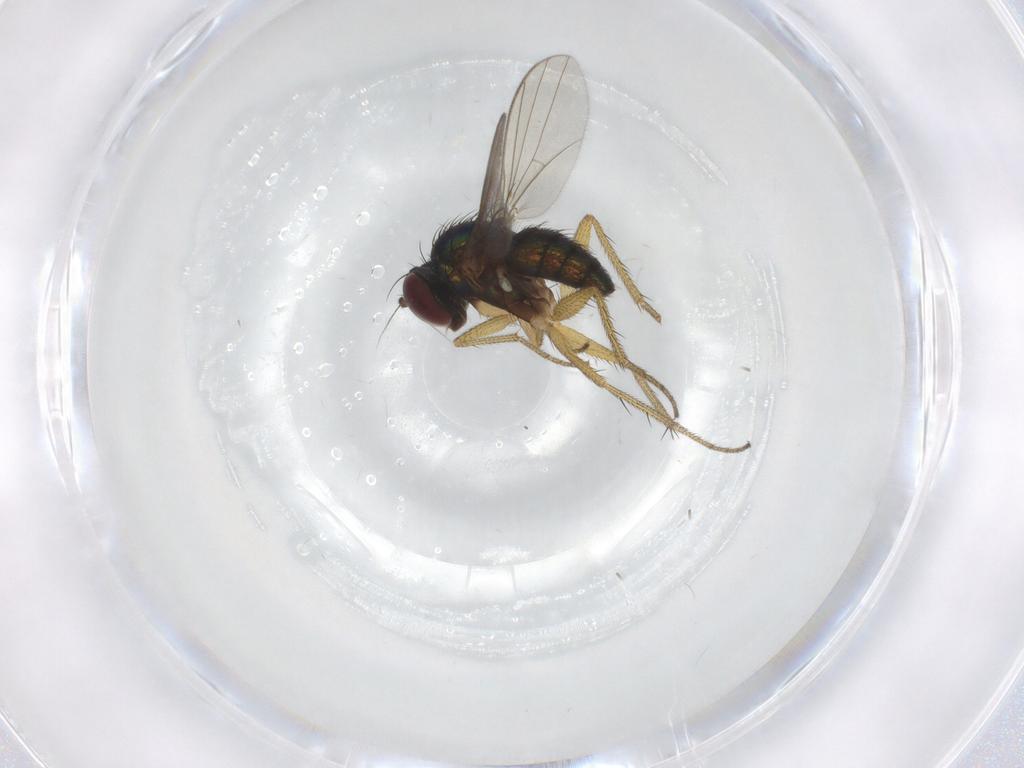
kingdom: Animalia
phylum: Arthropoda
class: Insecta
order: Diptera
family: Dolichopodidae
